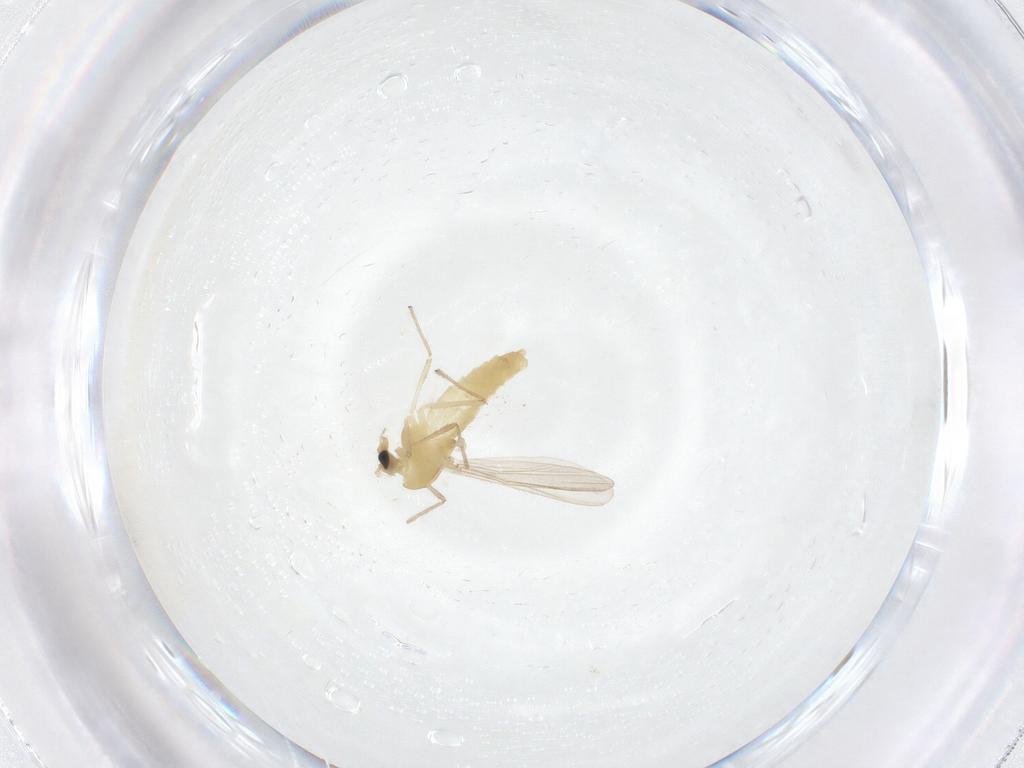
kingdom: Animalia
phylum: Arthropoda
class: Insecta
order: Diptera
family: Chironomidae
